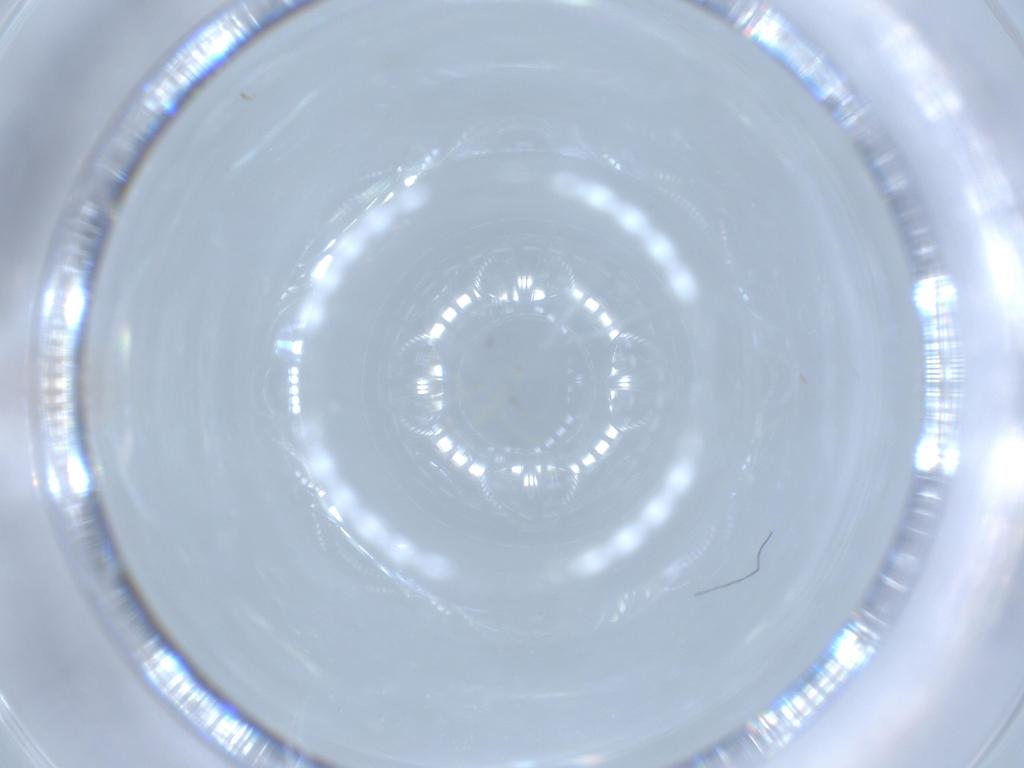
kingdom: Animalia
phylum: Arthropoda
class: Insecta
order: Diptera
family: Cecidomyiidae
